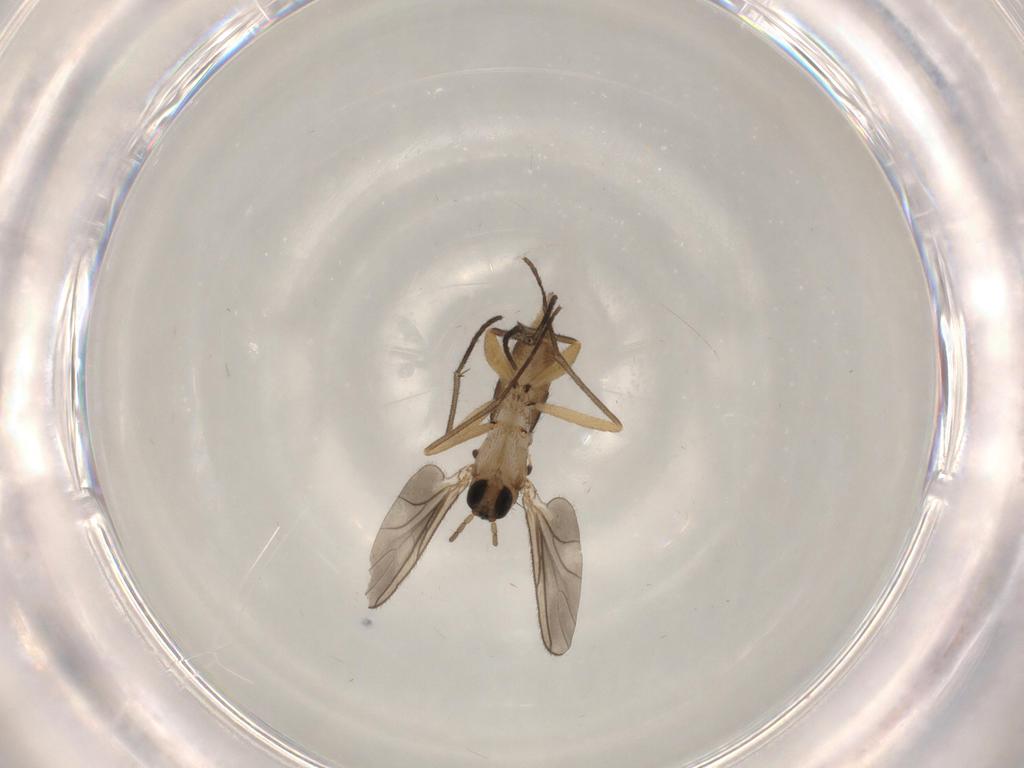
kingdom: Animalia
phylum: Arthropoda
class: Insecta
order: Diptera
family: Sciaridae
